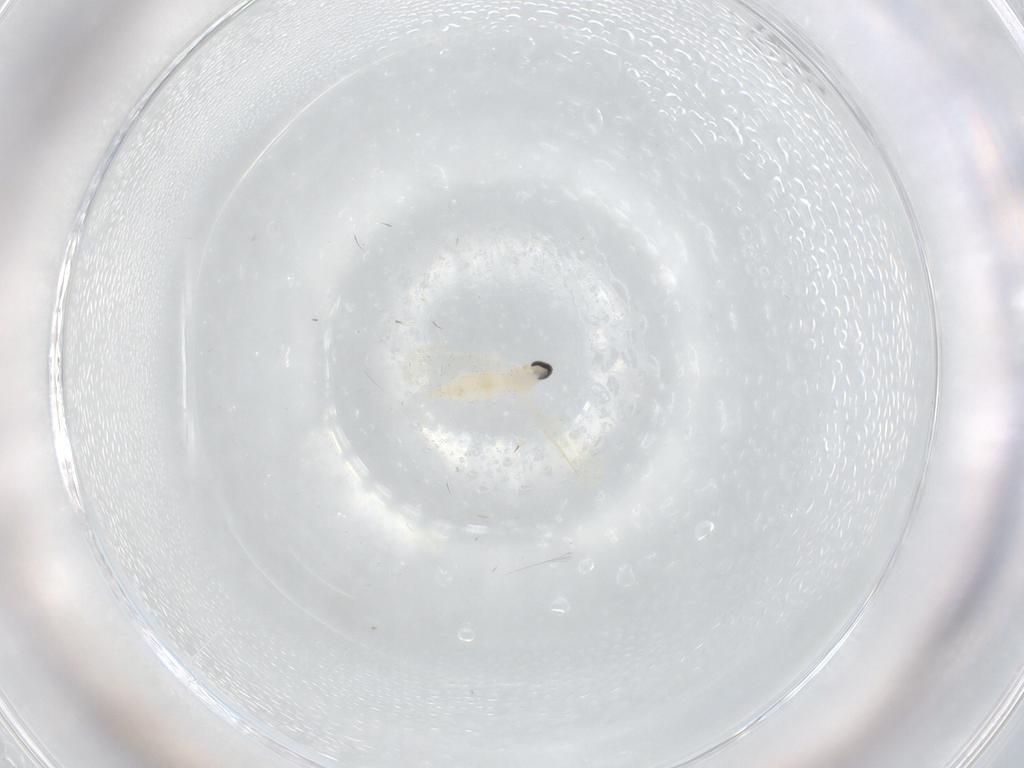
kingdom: Animalia
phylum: Arthropoda
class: Insecta
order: Diptera
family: Cecidomyiidae
